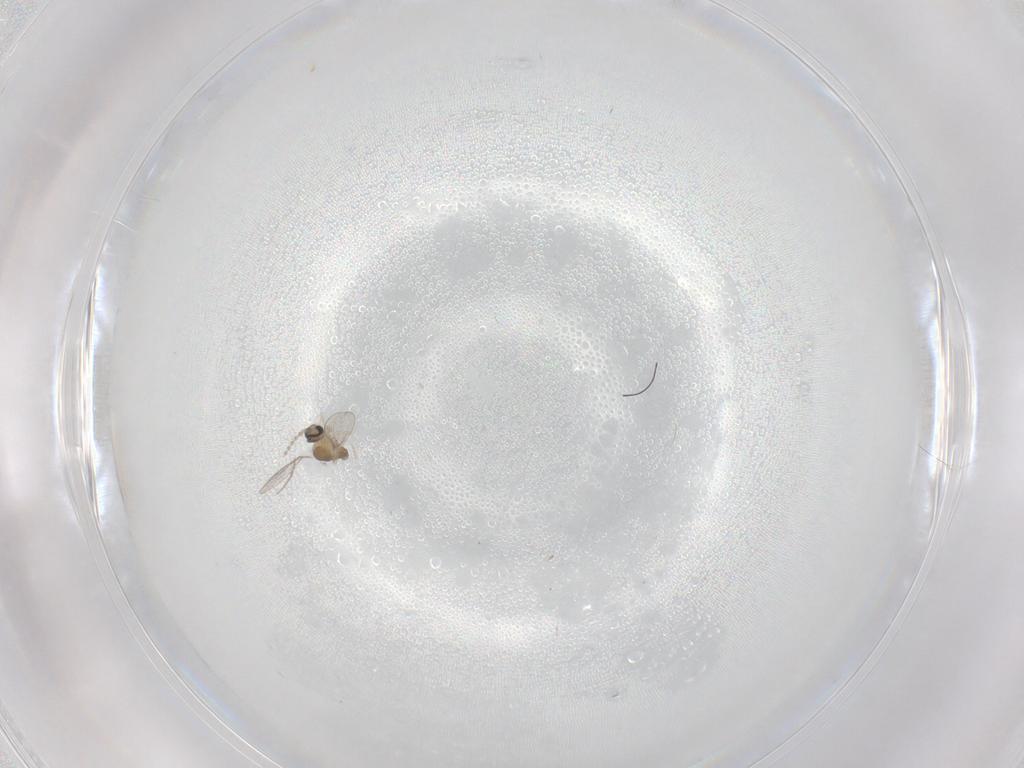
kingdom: Animalia
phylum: Arthropoda
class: Insecta
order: Diptera
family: Cecidomyiidae
